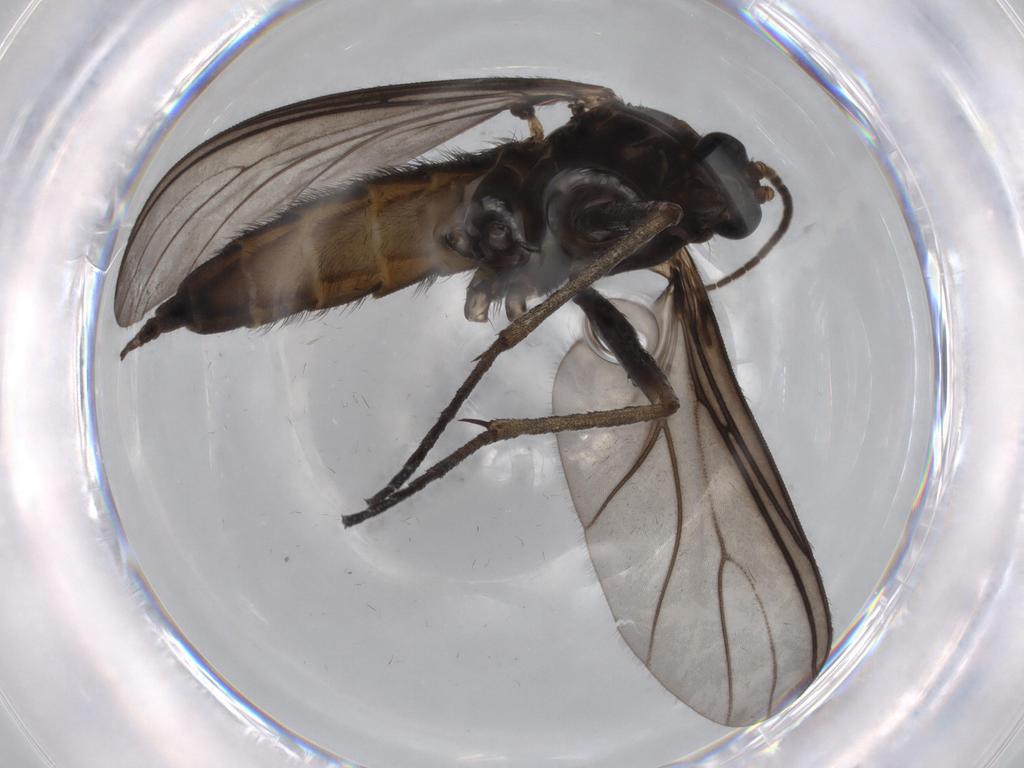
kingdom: Animalia
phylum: Arthropoda
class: Insecta
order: Diptera
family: Sciaridae
